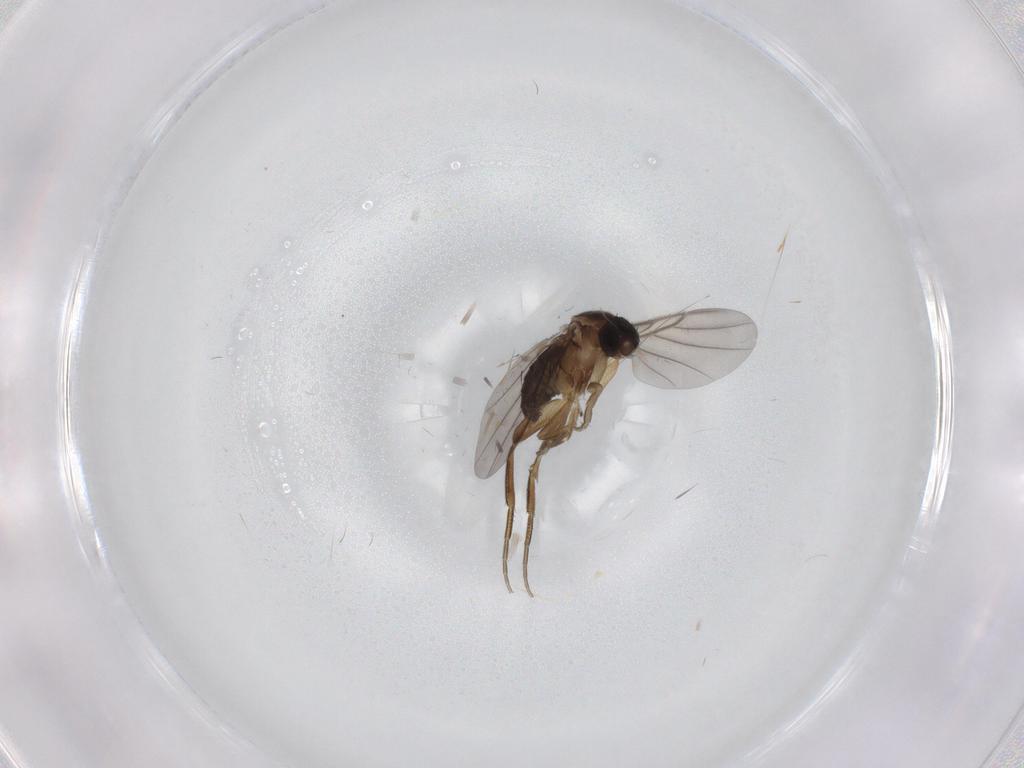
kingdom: Animalia
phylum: Arthropoda
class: Insecta
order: Diptera
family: Phoridae
